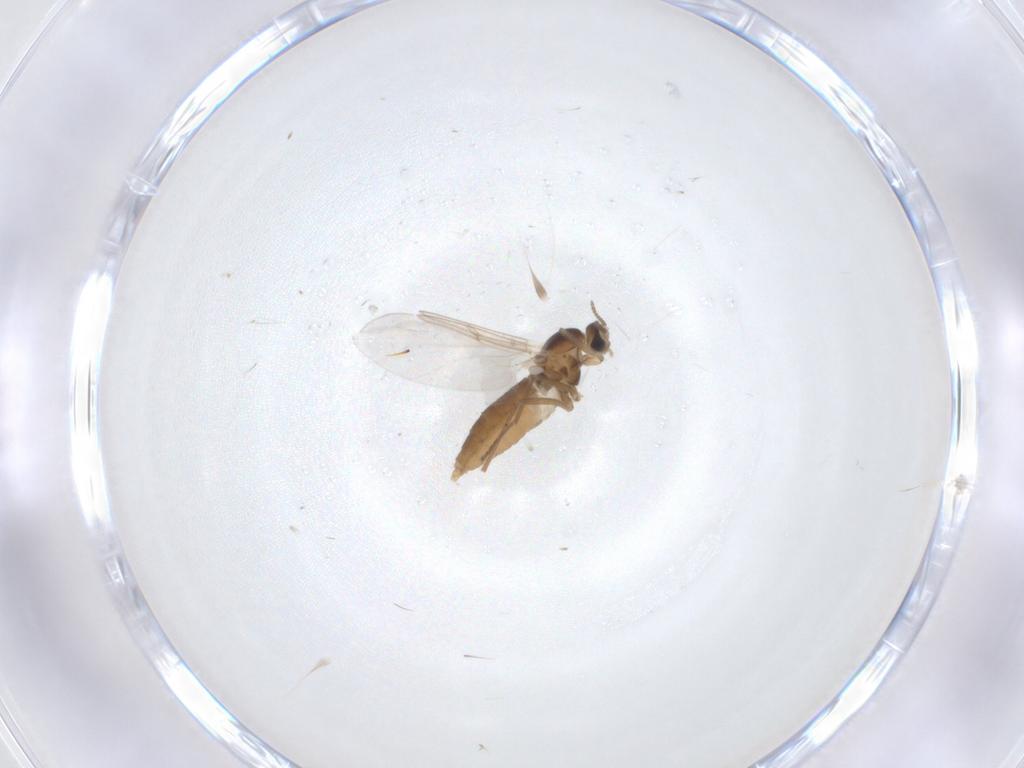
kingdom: Animalia
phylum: Arthropoda
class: Insecta
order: Diptera
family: Cecidomyiidae
